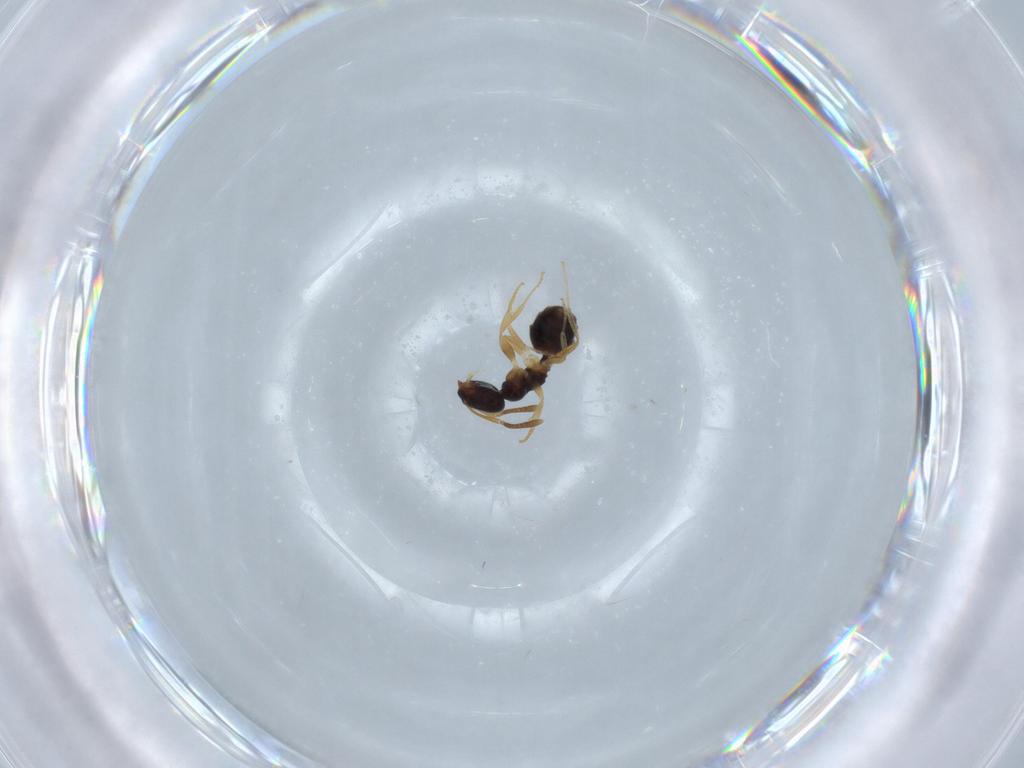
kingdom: Animalia
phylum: Arthropoda
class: Insecta
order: Hymenoptera
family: Formicidae
